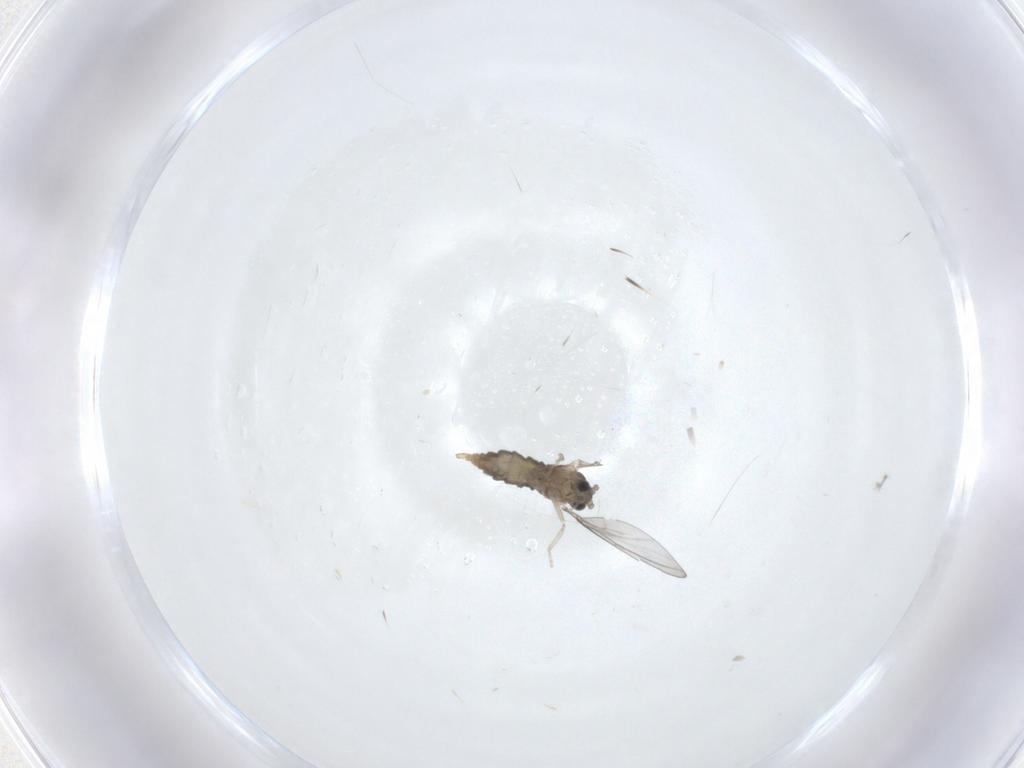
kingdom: Animalia
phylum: Arthropoda
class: Insecta
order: Diptera
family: Cecidomyiidae
